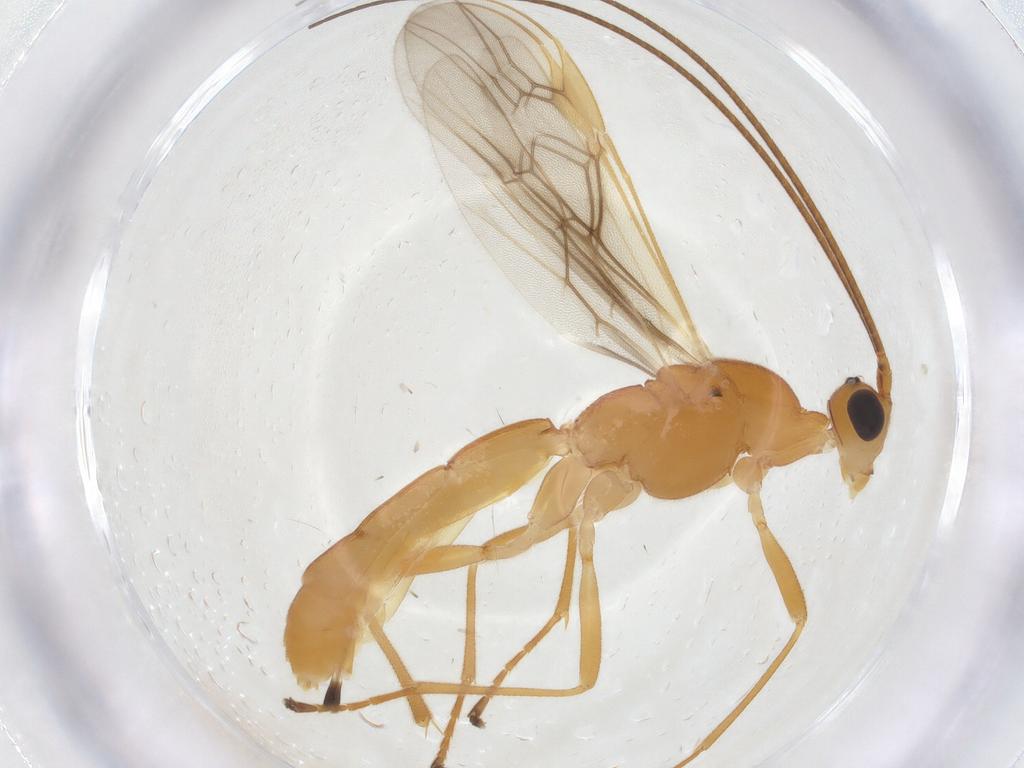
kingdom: Animalia
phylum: Arthropoda
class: Insecta
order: Hymenoptera
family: Braconidae
